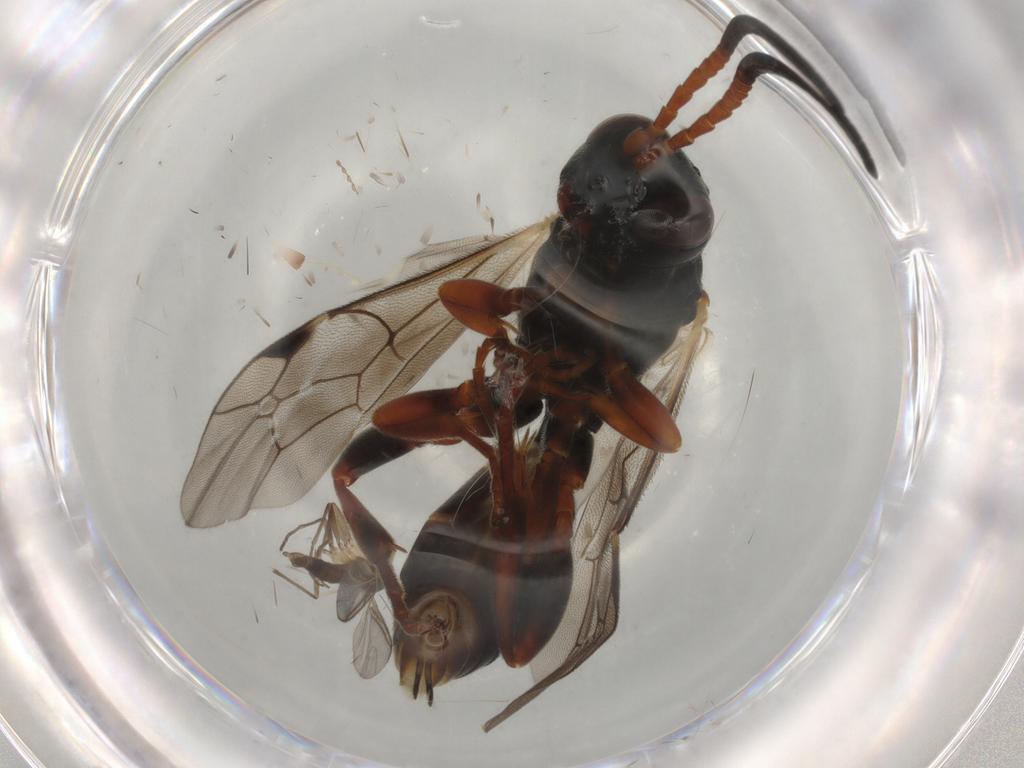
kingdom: Animalia
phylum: Arthropoda
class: Insecta
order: Hymenoptera
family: Ichneumonidae
